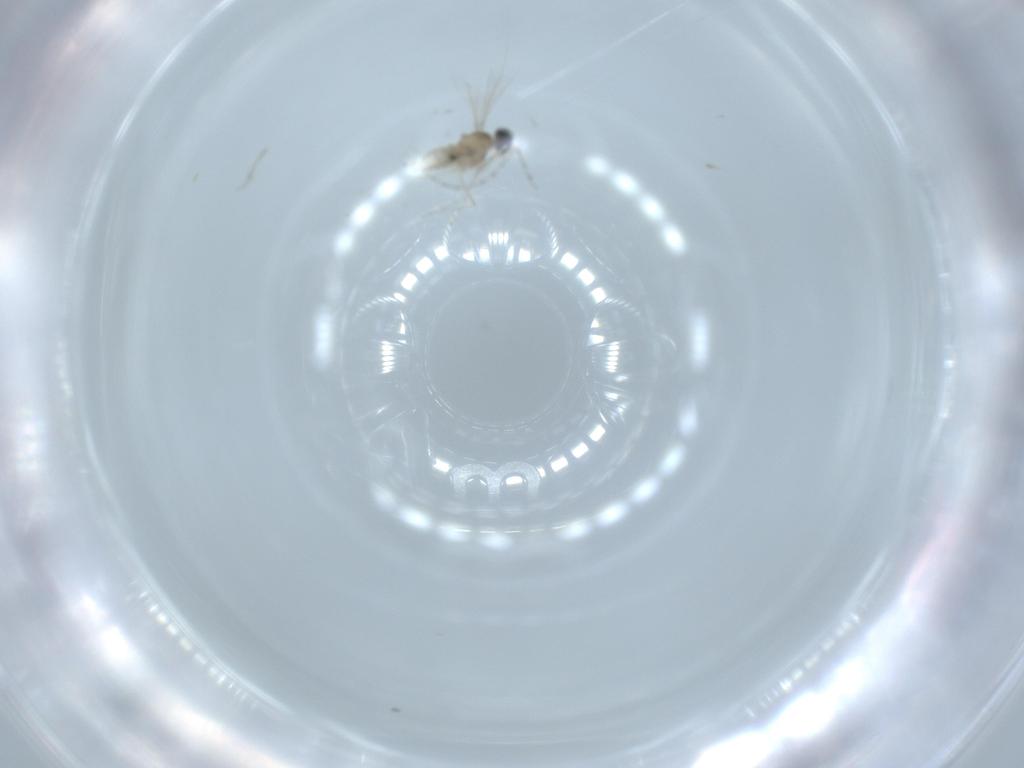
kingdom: Animalia
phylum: Arthropoda
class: Insecta
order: Diptera
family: Cecidomyiidae
